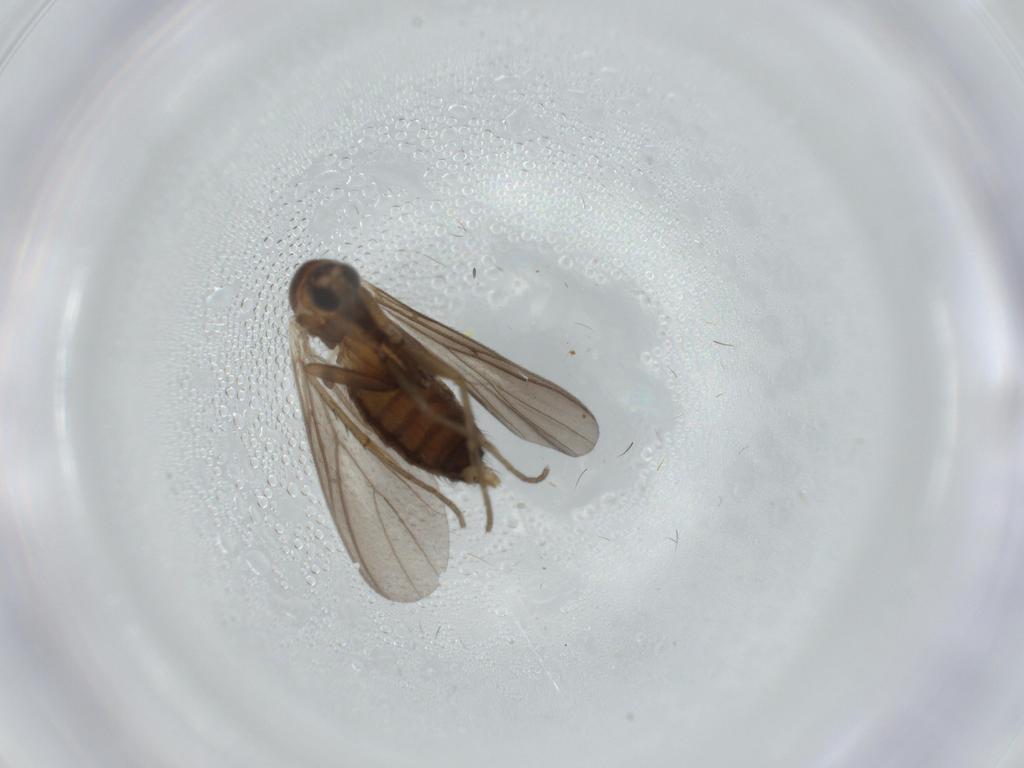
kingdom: Animalia
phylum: Arthropoda
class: Insecta
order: Diptera
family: Mycetophilidae
